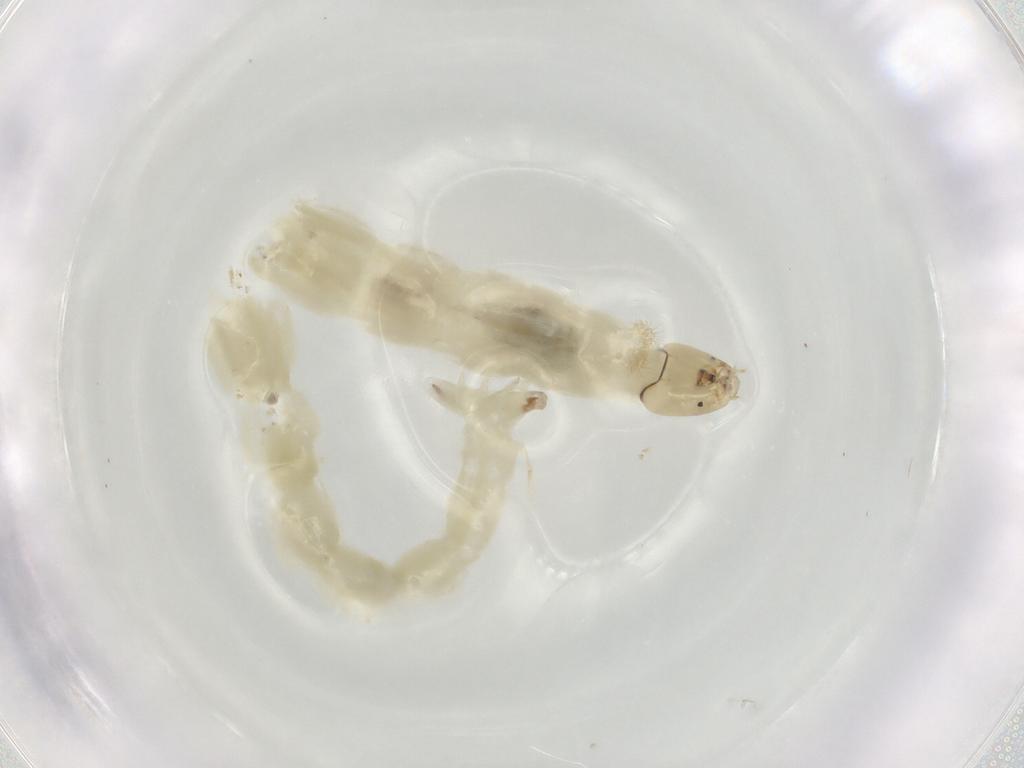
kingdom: Animalia
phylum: Arthropoda
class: Insecta
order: Diptera
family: Chironomidae
